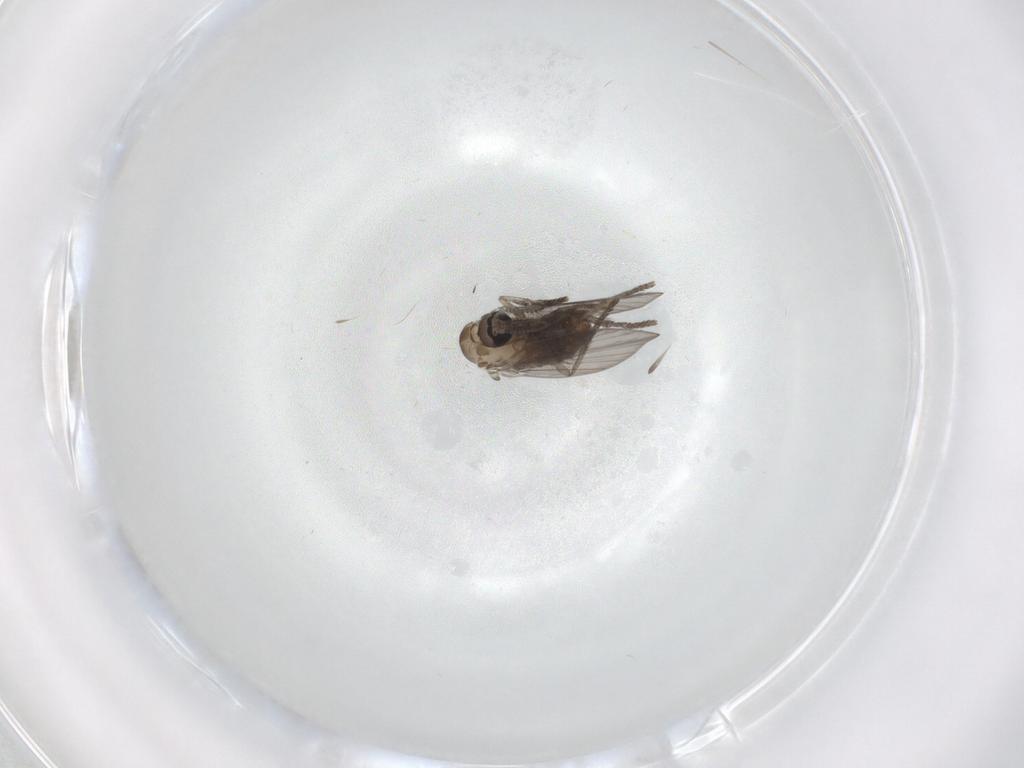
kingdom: Animalia
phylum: Arthropoda
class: Insecta
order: Diptera
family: Psychodidae
